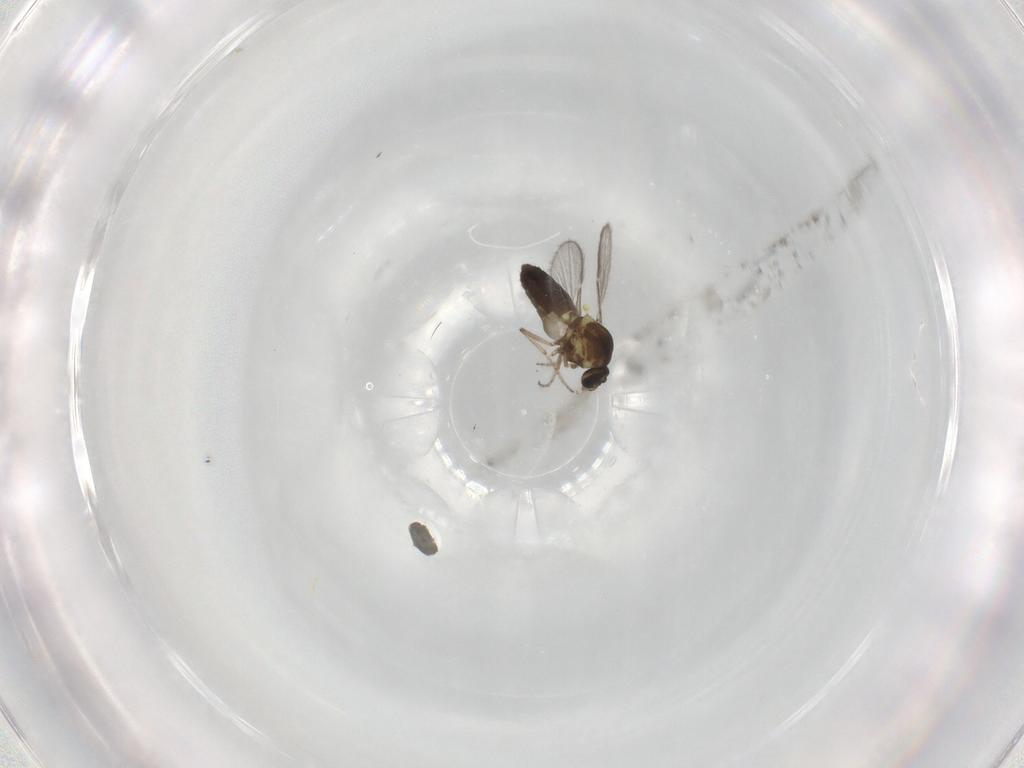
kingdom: Animalia
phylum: Arthropoda
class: Insecta
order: Diptera
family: Ceratopogonidae
